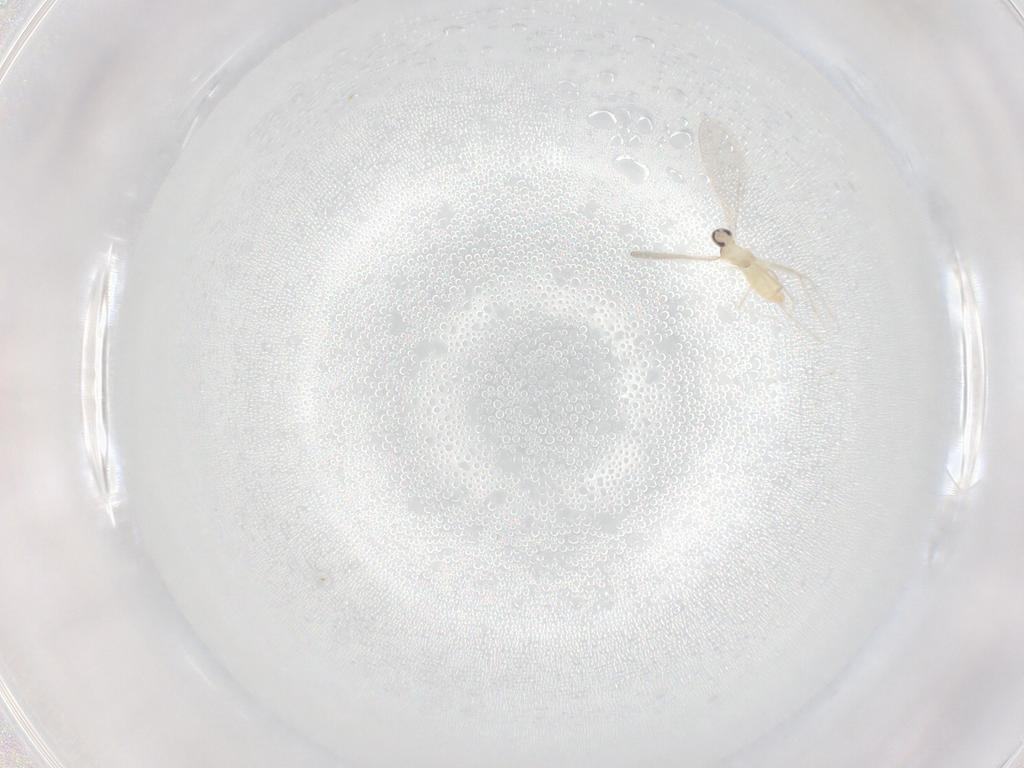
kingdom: Animalia
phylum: Arthropoda
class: Insecta
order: Diptera
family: Cecidomyiidae
